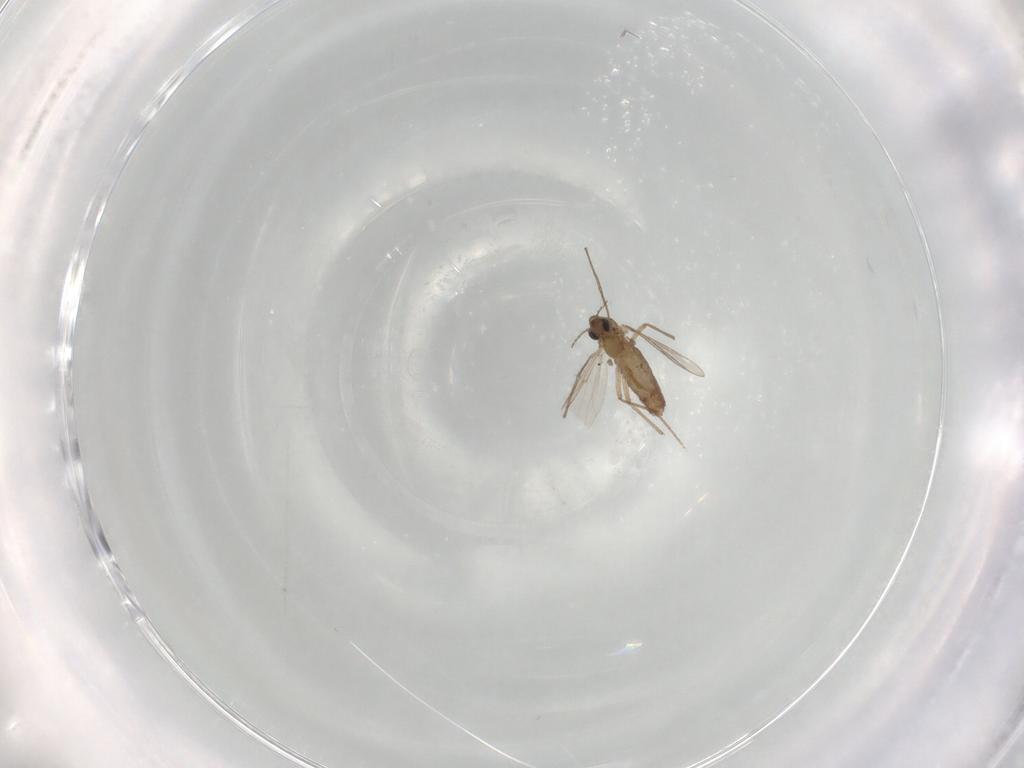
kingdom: Animalia
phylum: Arthropoda
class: Insecta
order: Diptera
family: Chironomidae
